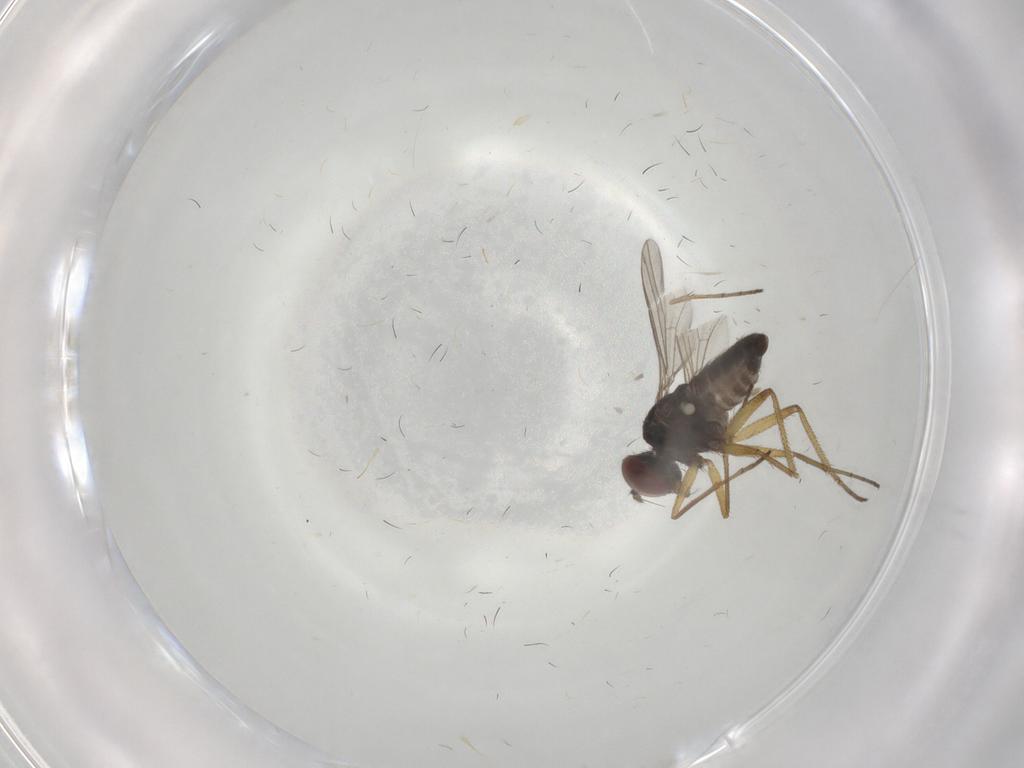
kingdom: Animalia
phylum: Arthropoda
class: Insecta
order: Diptera
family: Dolichopodidae
